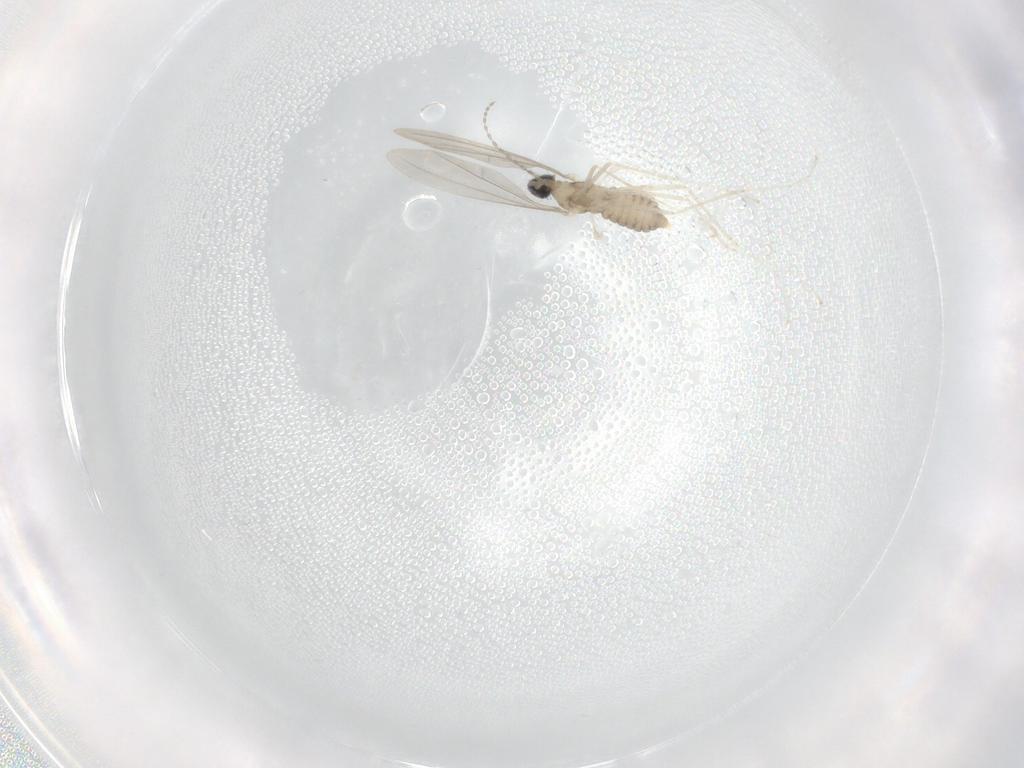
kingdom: Animalia
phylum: Arthropoda
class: Insecta
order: Diptera
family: Cecidomyiidae
